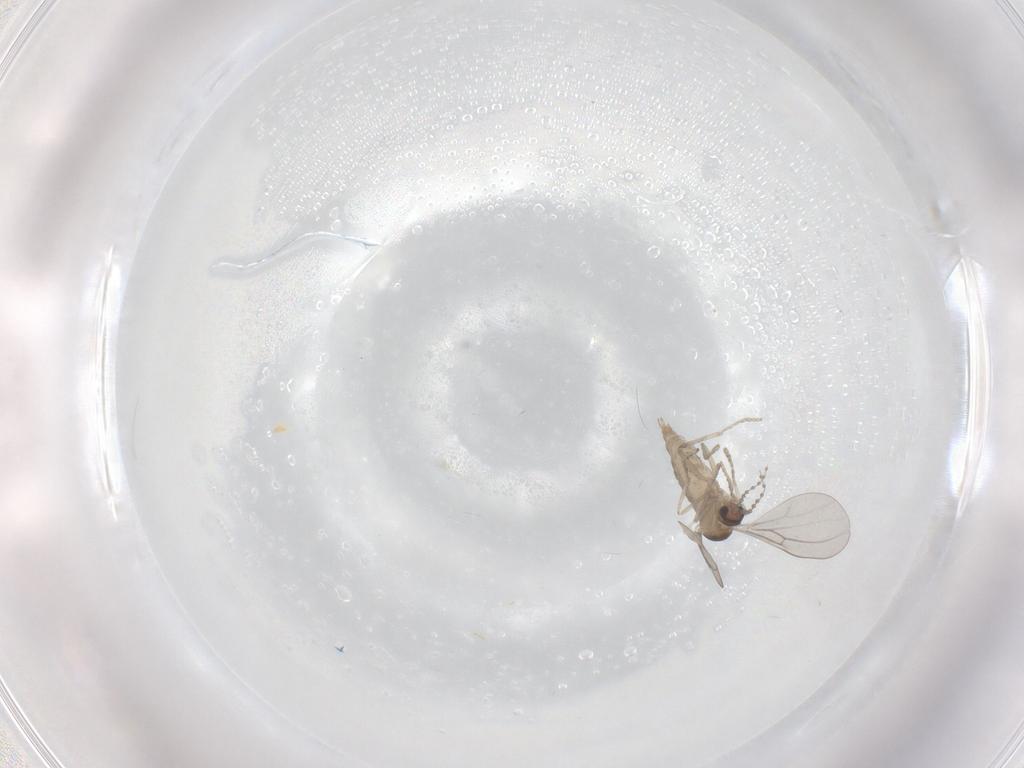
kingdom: Animalia
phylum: Arthropoda
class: Insecta
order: Diptera
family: Cecidomyiidae
